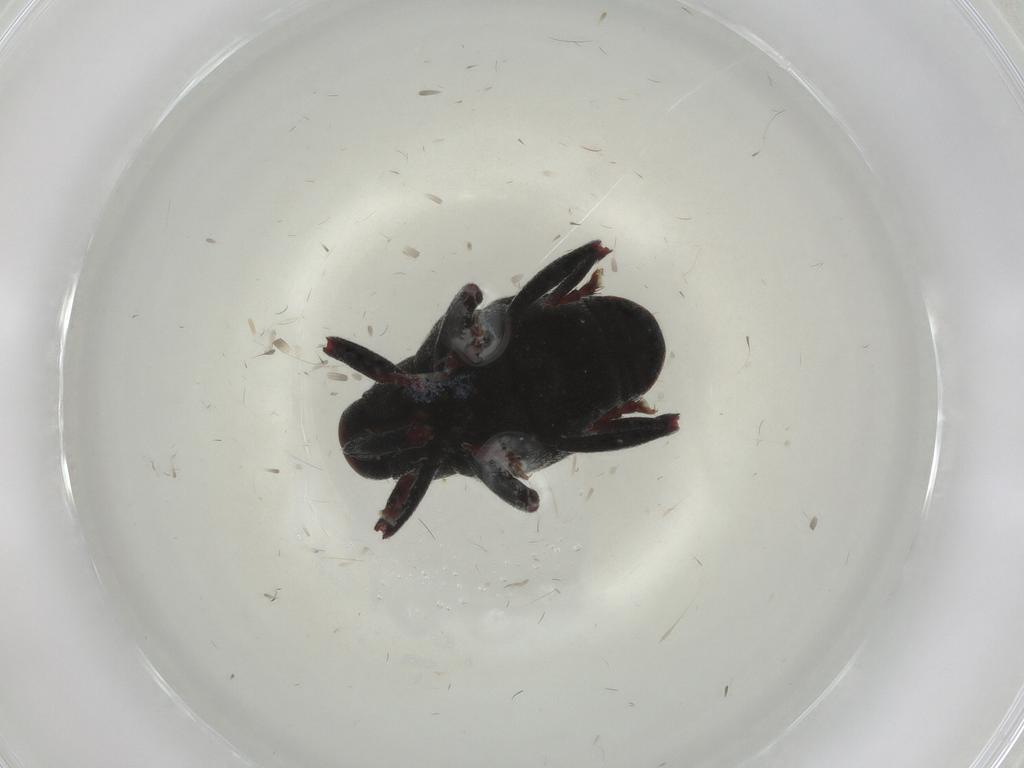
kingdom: Animalia
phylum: Arthropoda
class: Insecta
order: Coleoptera
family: Curculionidae
